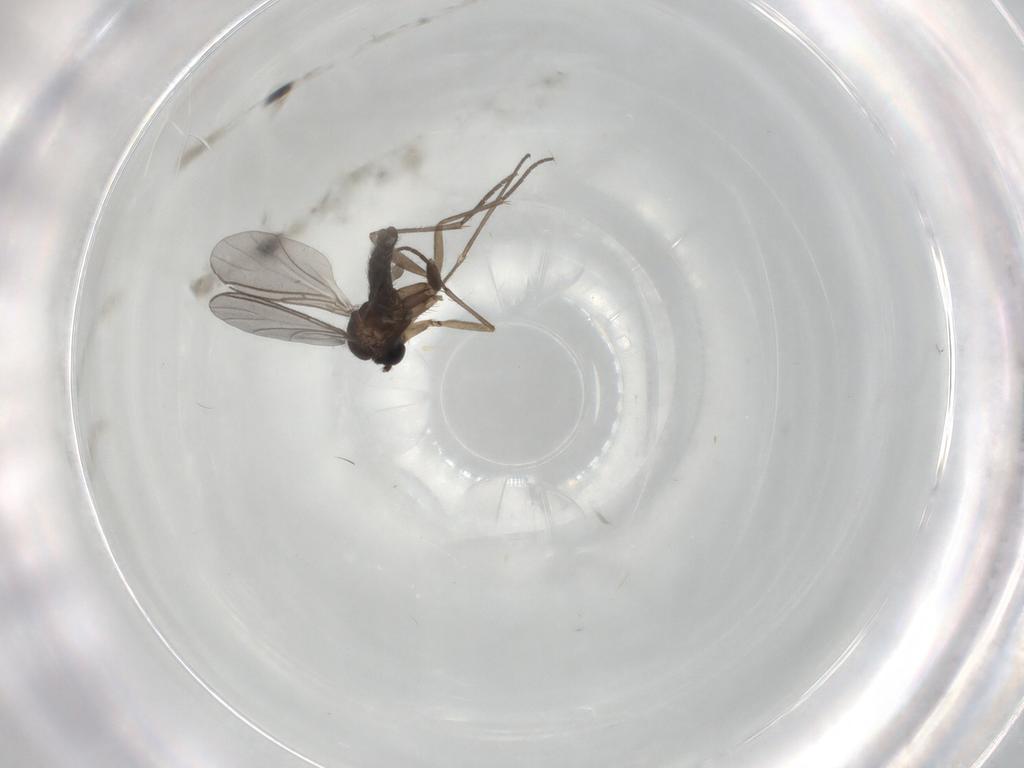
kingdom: Animalia
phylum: Arthropoda
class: Insecta
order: Diptera
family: Sciaridae
